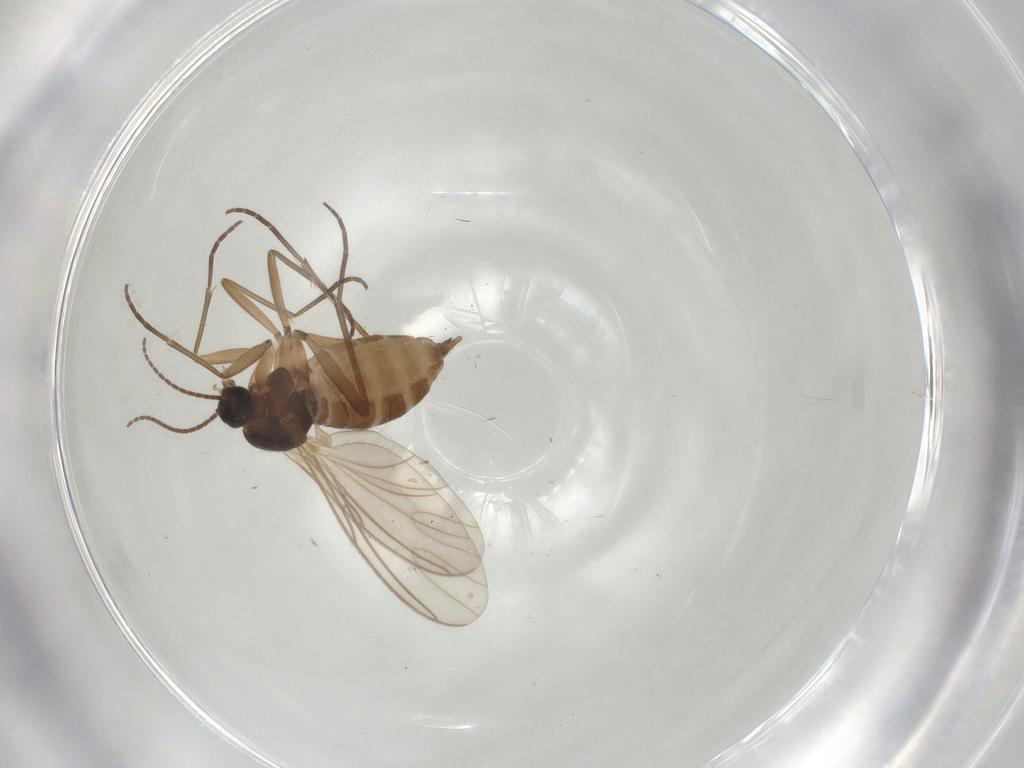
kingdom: Animalia
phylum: Arthropoda
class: Insecta
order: Diptera
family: Sciaridae
